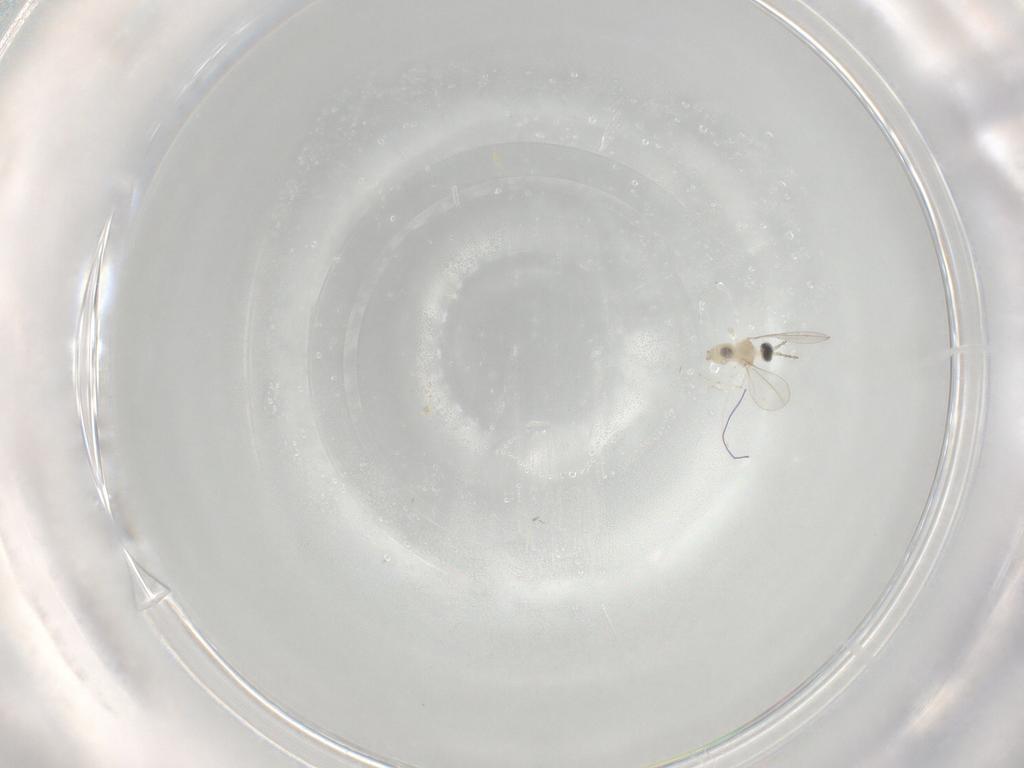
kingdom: Animalia
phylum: Arthropoda
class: Insecta
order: Diptera
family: Cecidomyiidae
